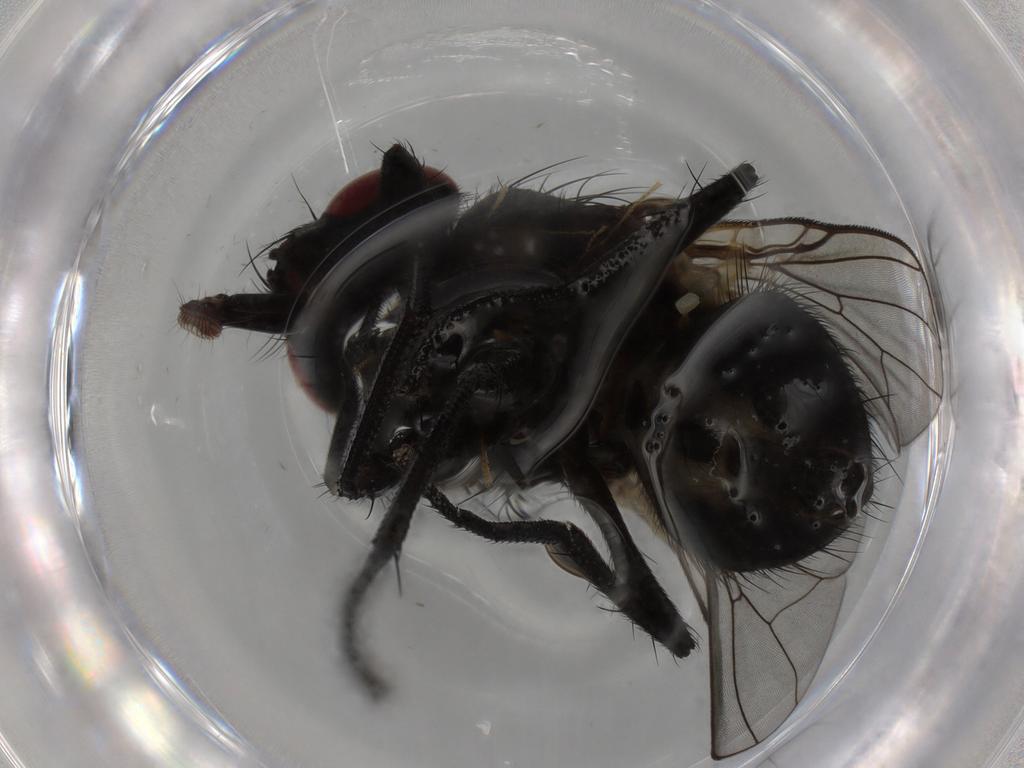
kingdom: Animalia
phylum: Arthropoda
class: Insecta
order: Diptera
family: Muscidae
